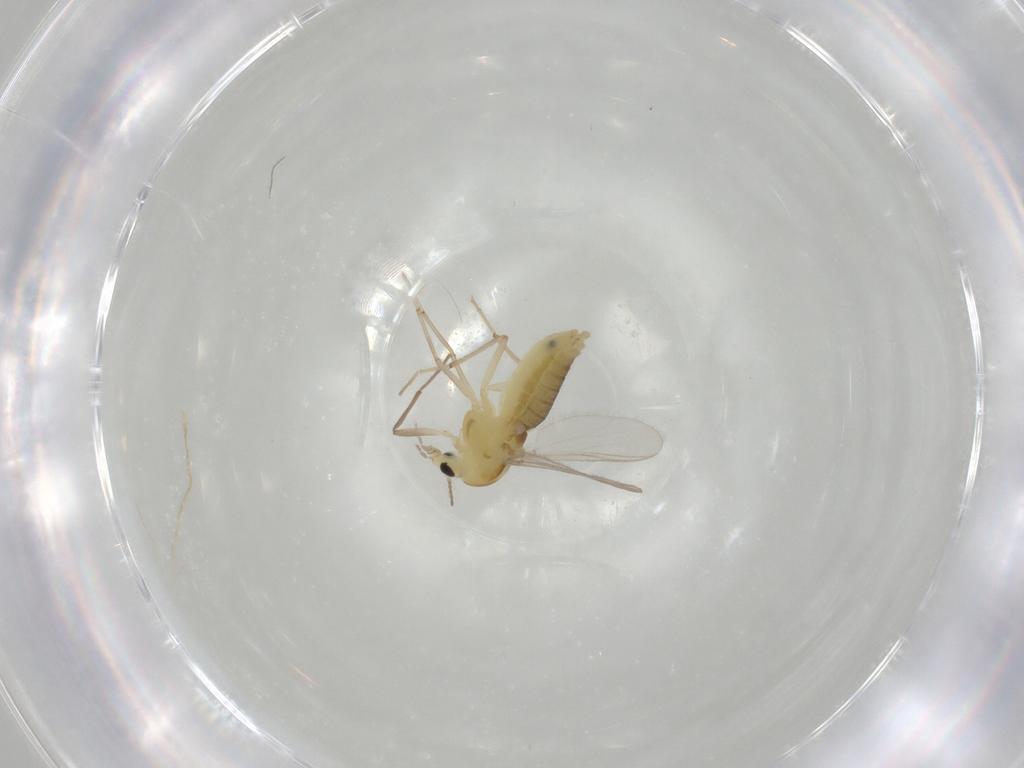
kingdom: Animalia
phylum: Arthropoda
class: Insecta
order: Diptera
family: Chironomidae
